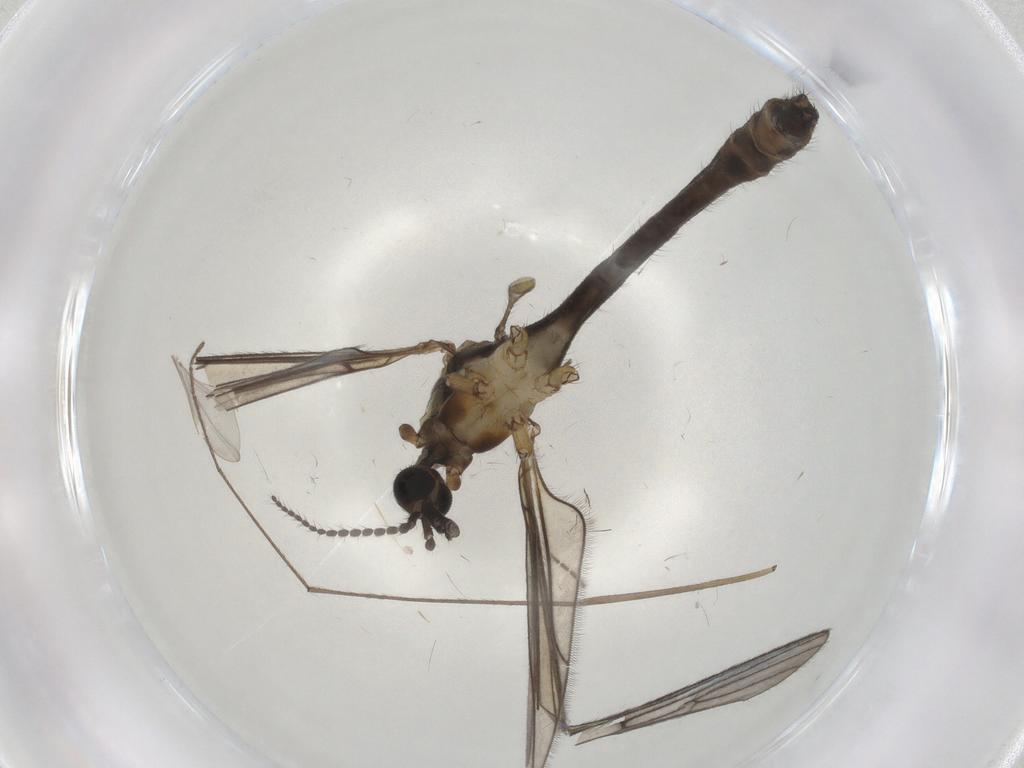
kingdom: Animalia
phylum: Arthropoda
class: Insecta
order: Diptera
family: Limoniidae
